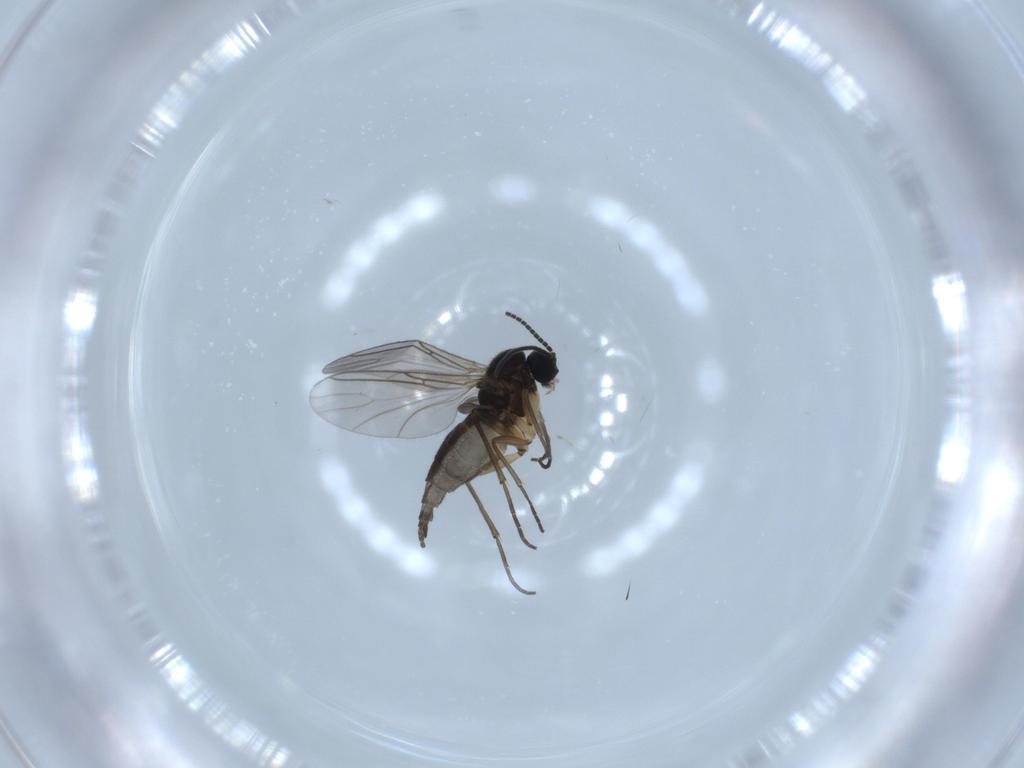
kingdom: Animalia
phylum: Arthropoda
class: Insecta
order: Diptera
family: Sciaridae
